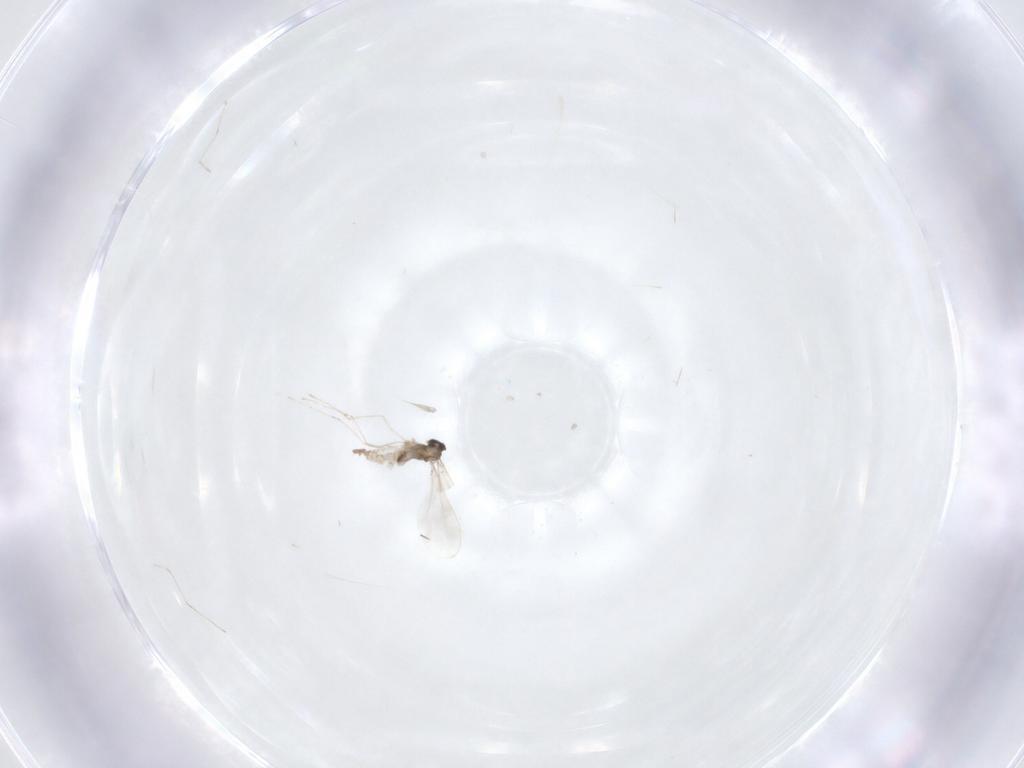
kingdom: Animalia
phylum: Arthropoda
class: Insecta
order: Diptera
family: Cecidomyiidae
